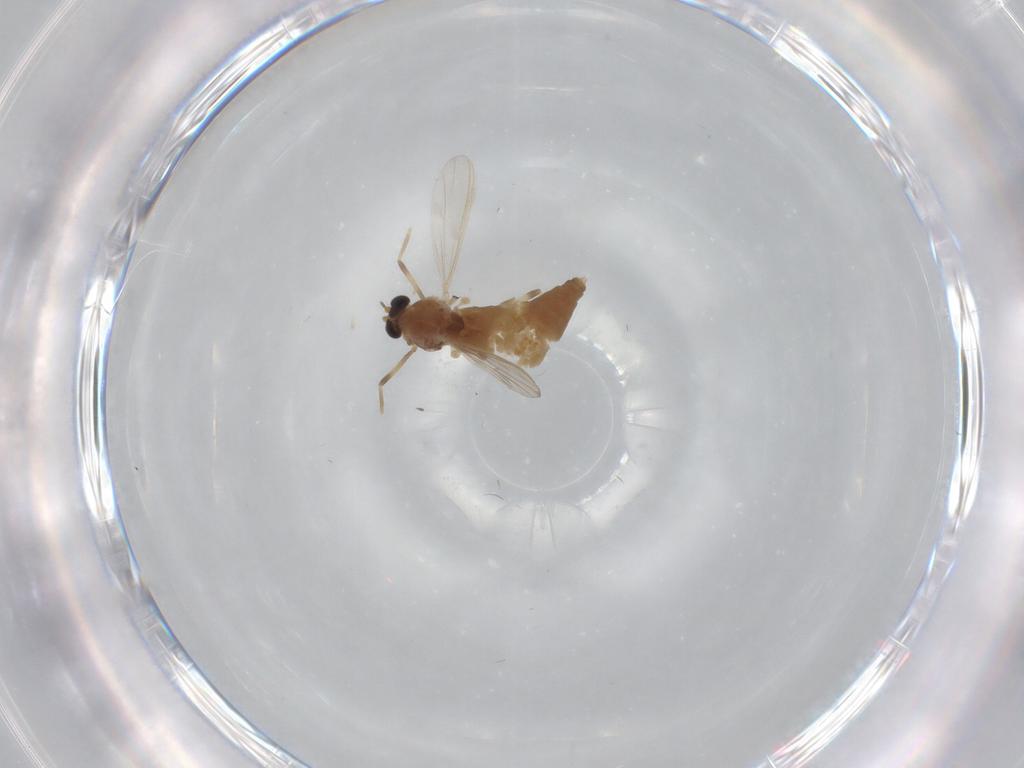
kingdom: Animalia
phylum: Arthropoda
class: Insecta
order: Diptera
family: Chironomidae
